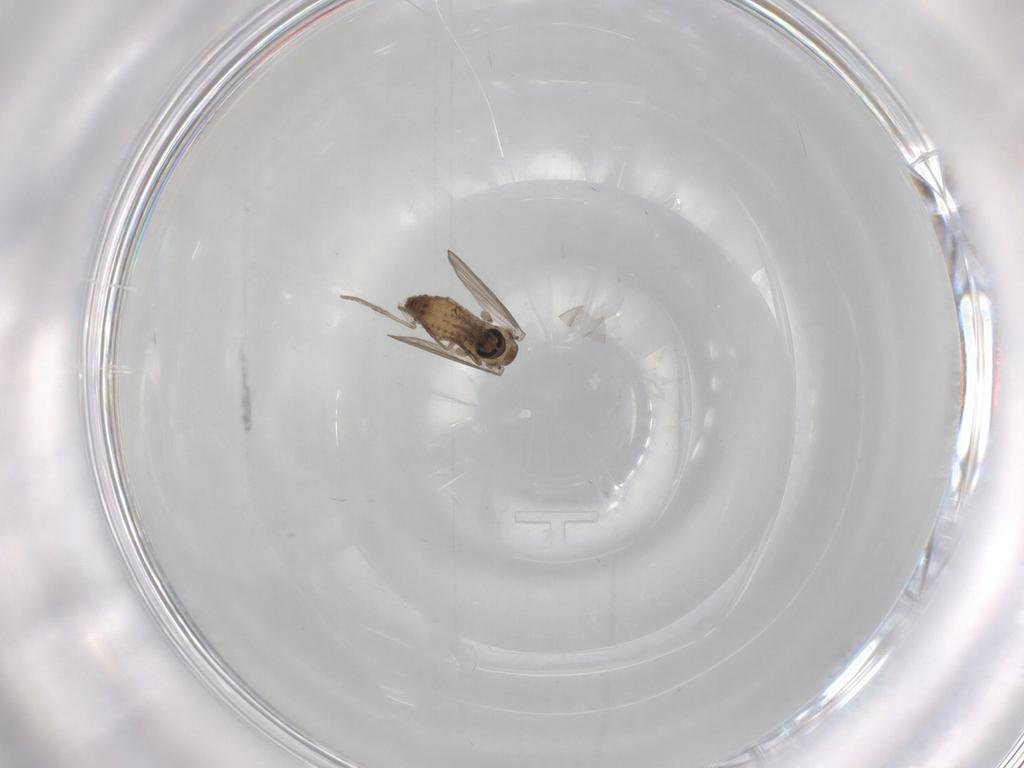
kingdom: Animalia
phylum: Arthropoda
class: Insecta
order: Diptera
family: Psychodidae
